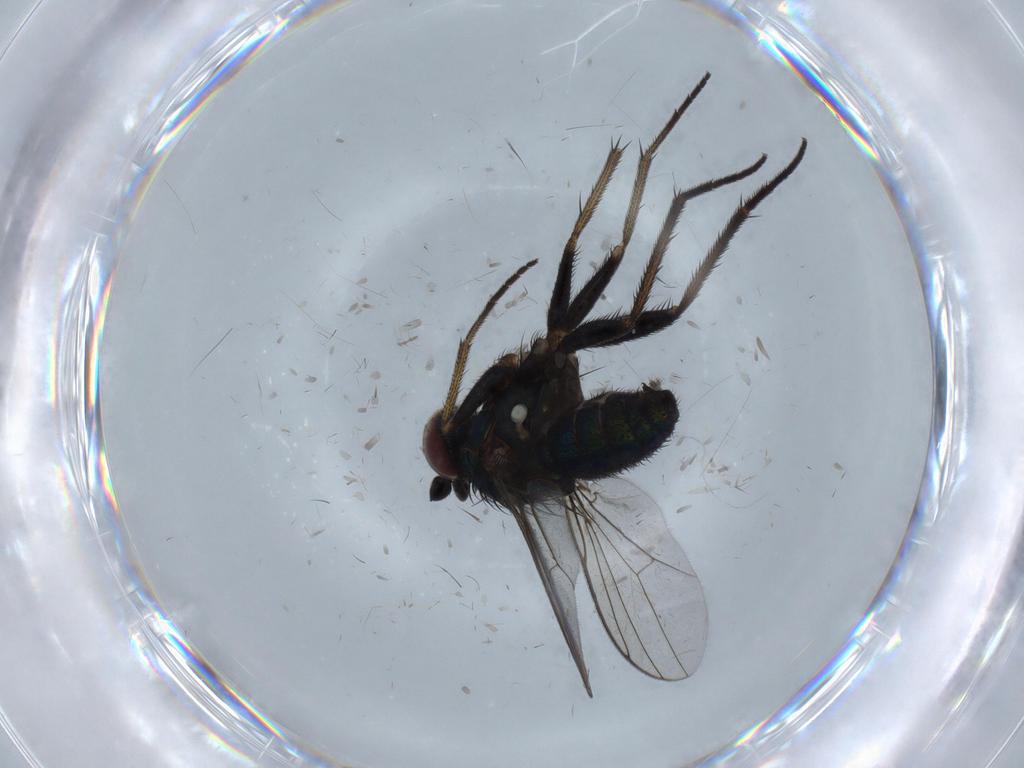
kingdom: Animalia
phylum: Arthropoda
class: Insecta
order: Diptera
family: Dolichopodidae
